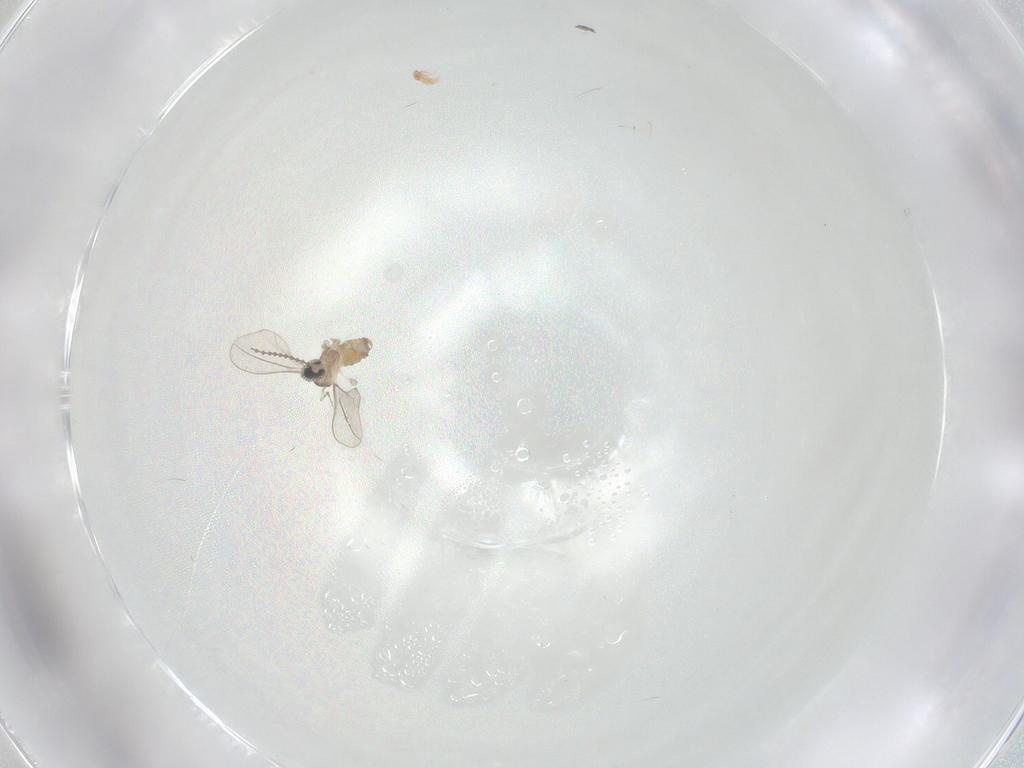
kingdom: Animalia
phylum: Arthropoda
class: Insecta
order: Diptera
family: Cecidomyiidae
